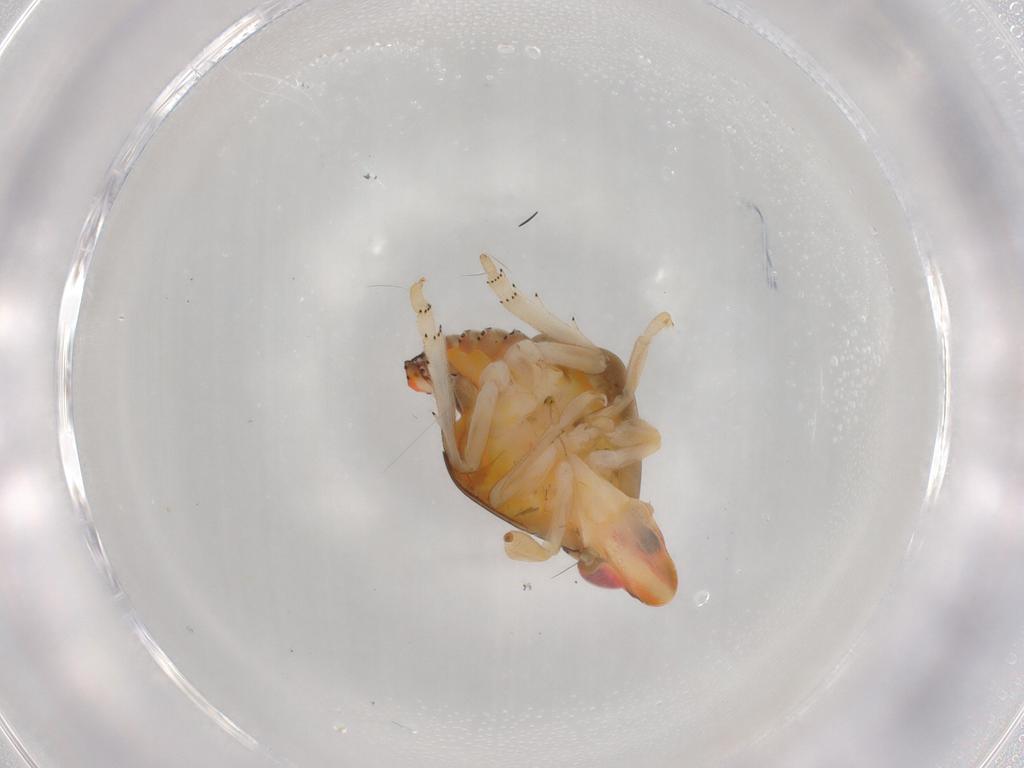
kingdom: Animalia
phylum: Arthropoda
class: Insecta
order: Hemiptera
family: Fulgoroidea_incertae_sedis
